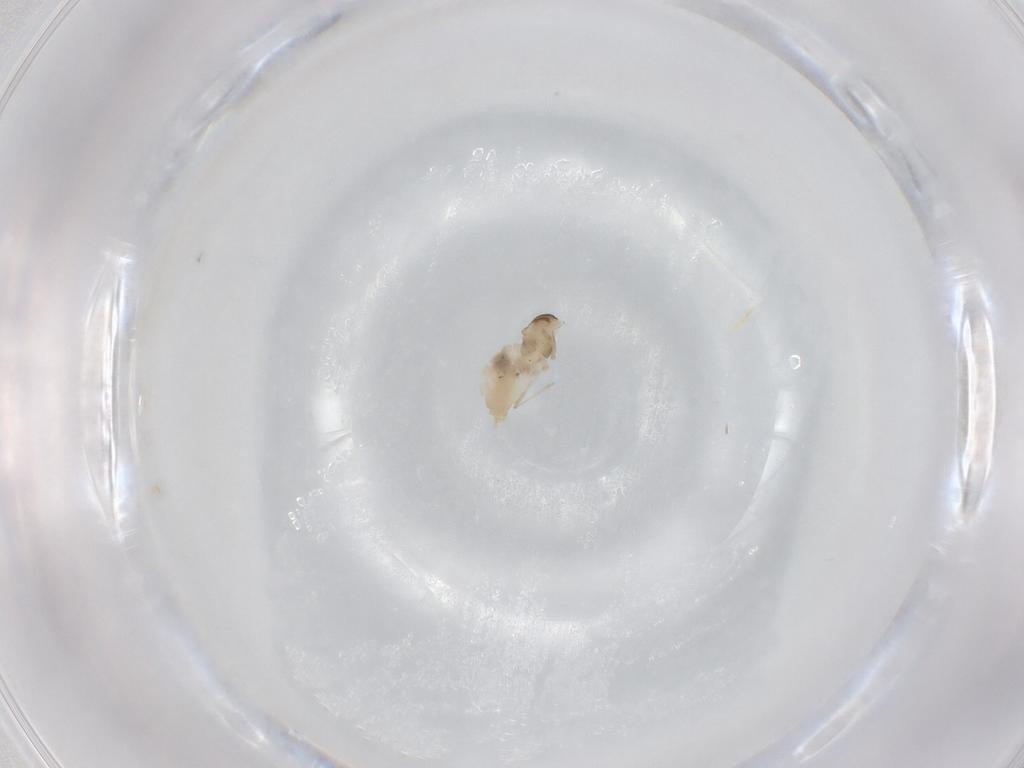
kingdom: Animalia
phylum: Arthropoda
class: Insecta
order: Diptera
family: Cecidomyiidae
